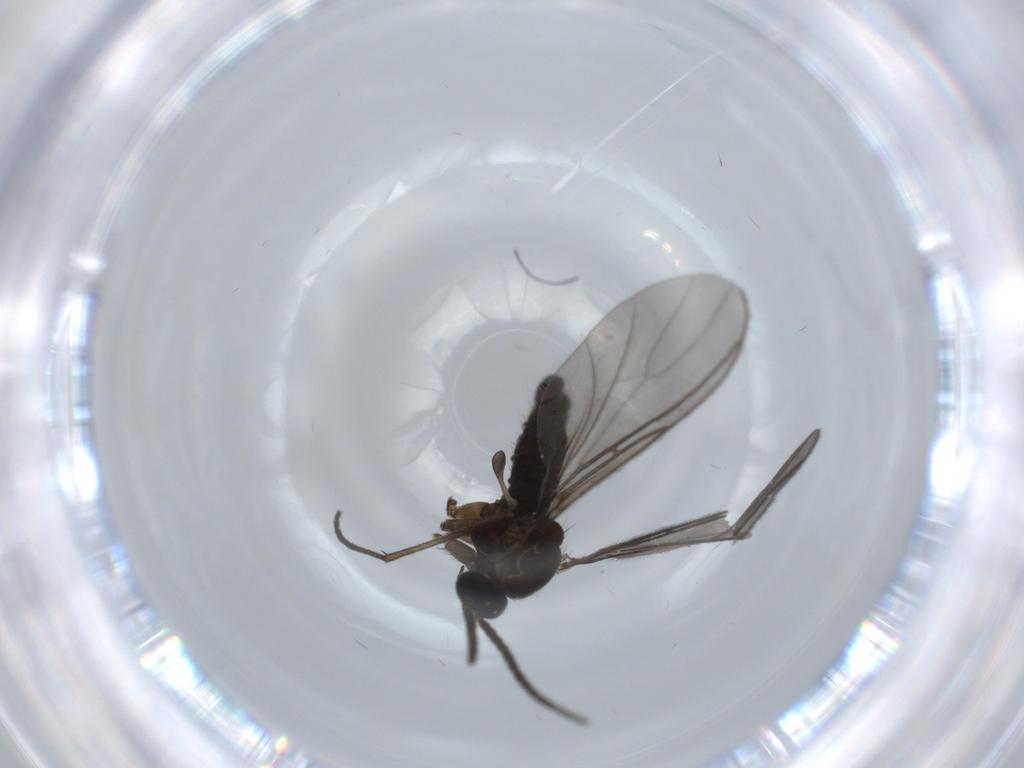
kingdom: Animalia
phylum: Arthropoda
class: Insecta
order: Diptera
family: Sciaridae
